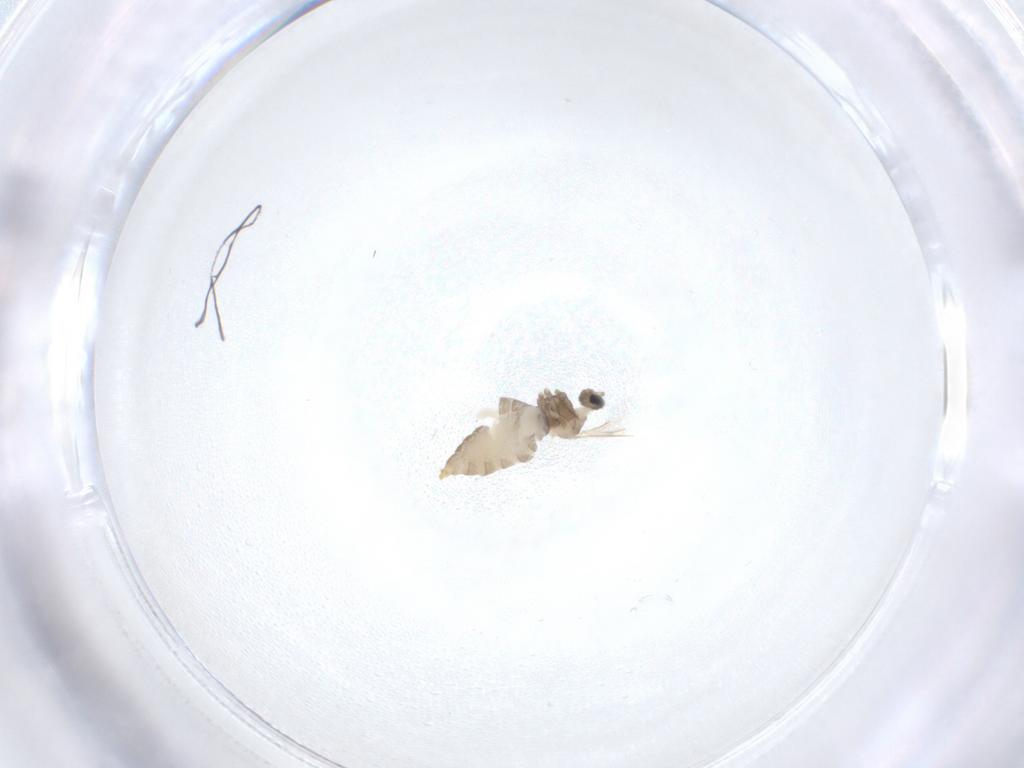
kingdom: Animalia
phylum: Arthropoda
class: Insecta
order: Diptera
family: Cecidomyiidae
